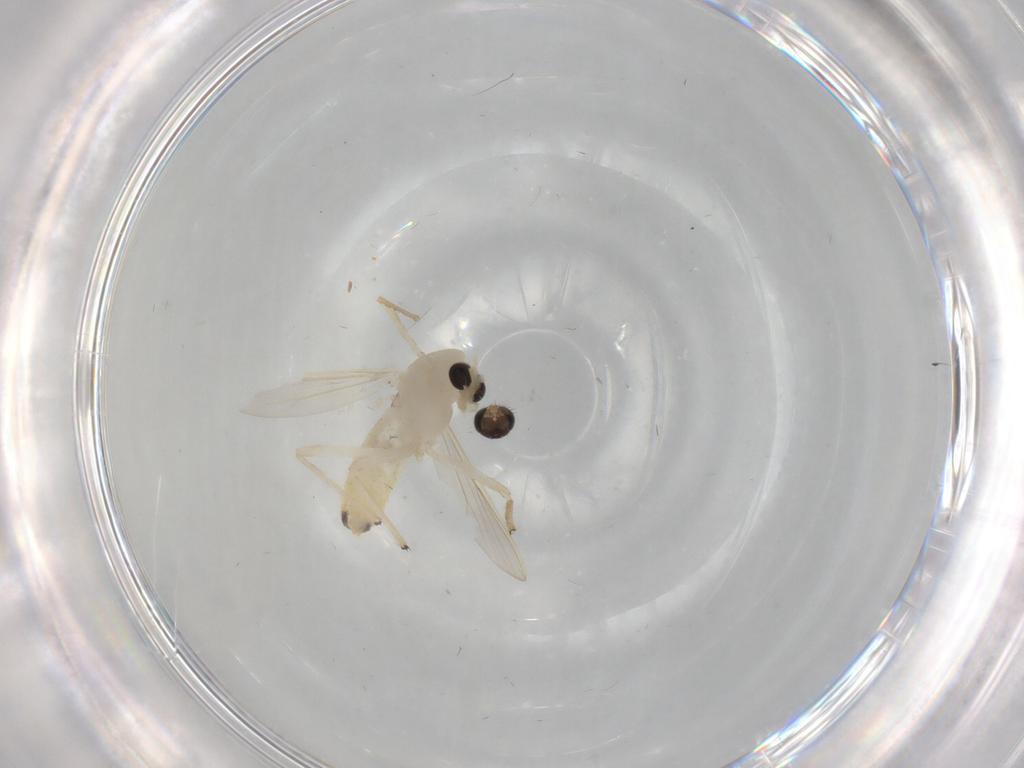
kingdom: Animalia
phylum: Arthropoda
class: Insecta
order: Diptera
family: Chironomidae
